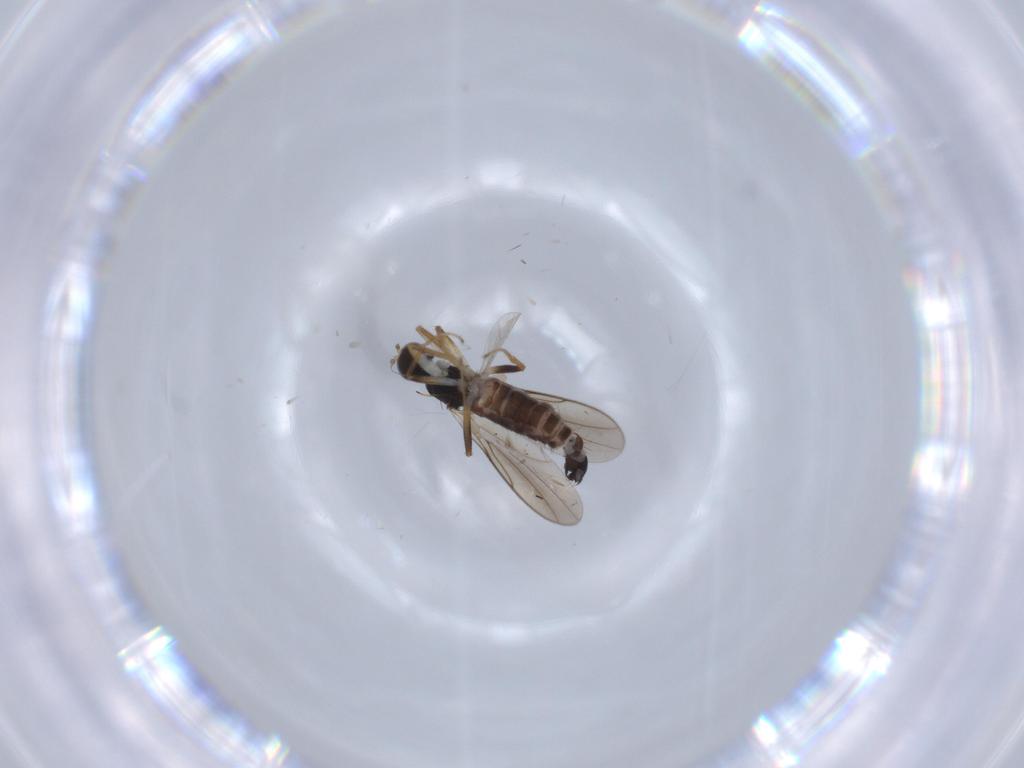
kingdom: Animalia
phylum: Arthropoda
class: Insecta
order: Diptera
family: Hybotidae
